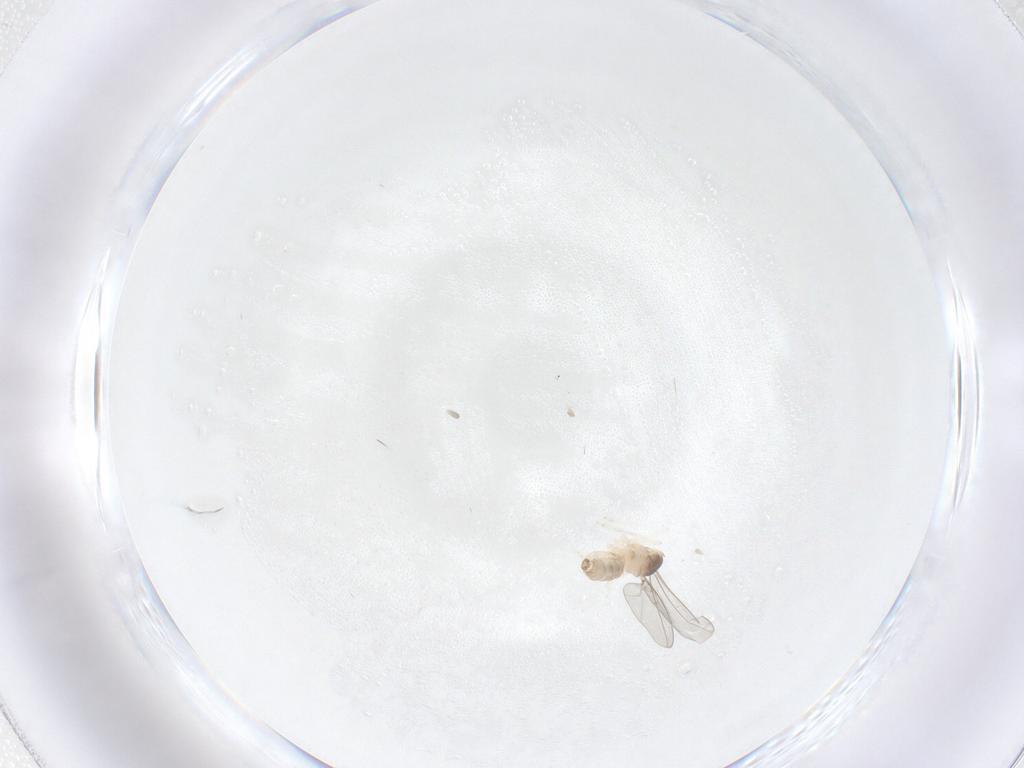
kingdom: Animalia
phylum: Arthropoda
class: Insecta
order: Diptera
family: Cecidomyiidae
